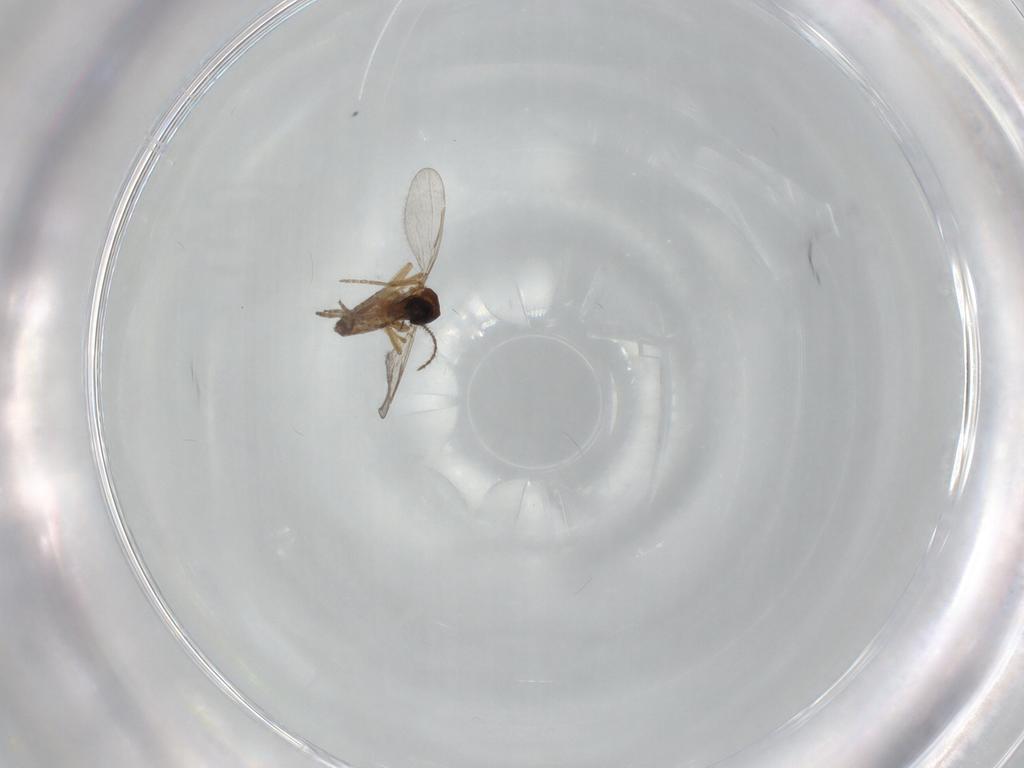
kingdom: Animalia
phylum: Arthropoda
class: Insecta
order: Diptera
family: Ceratopogonidae
